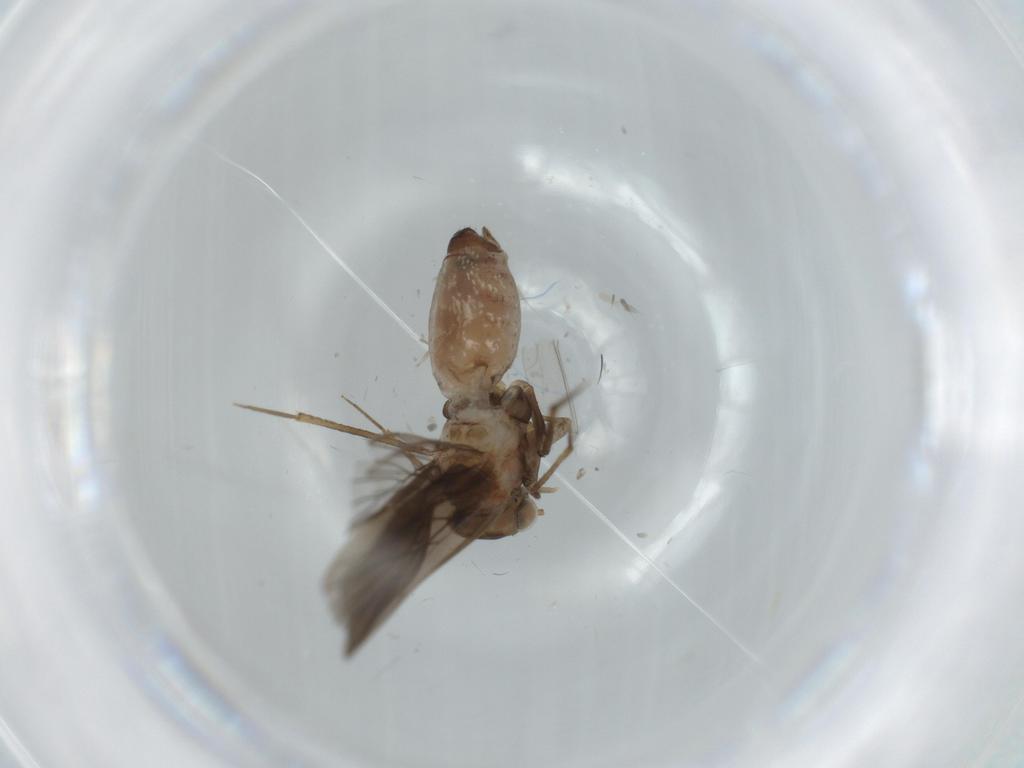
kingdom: Animalia
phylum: Arthropoda
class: Insecta
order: Psocodea
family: Lepidopsocidae
